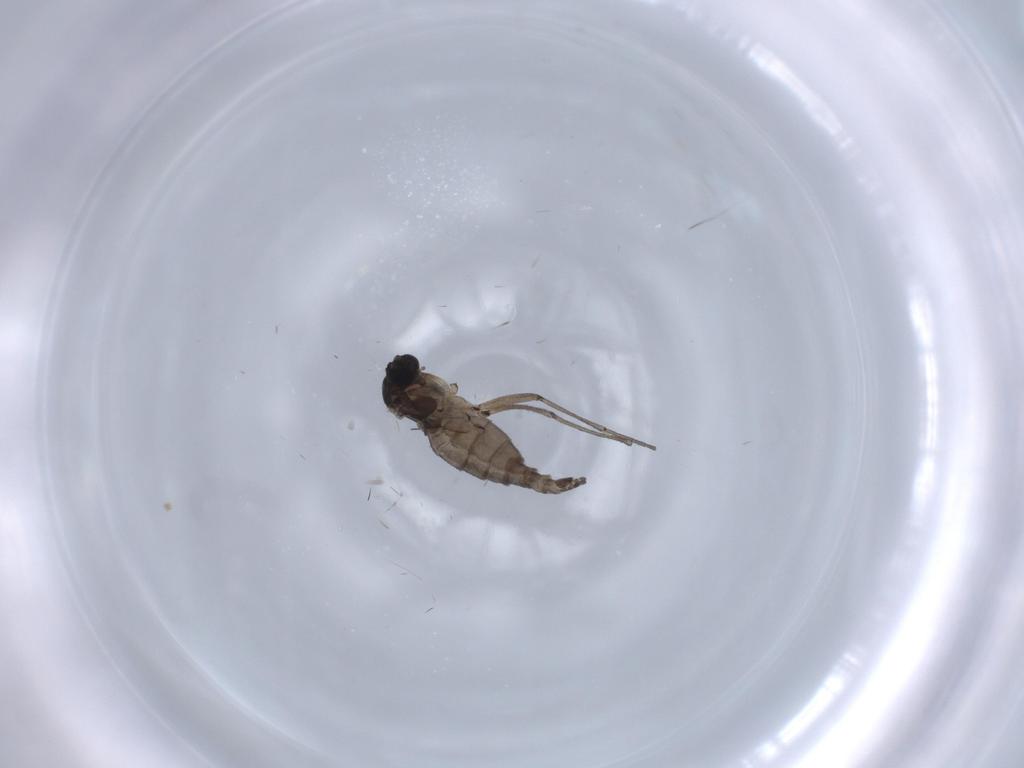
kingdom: Animalia
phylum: Arthropoda
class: Insecta
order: Diptera
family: Sciaridae
